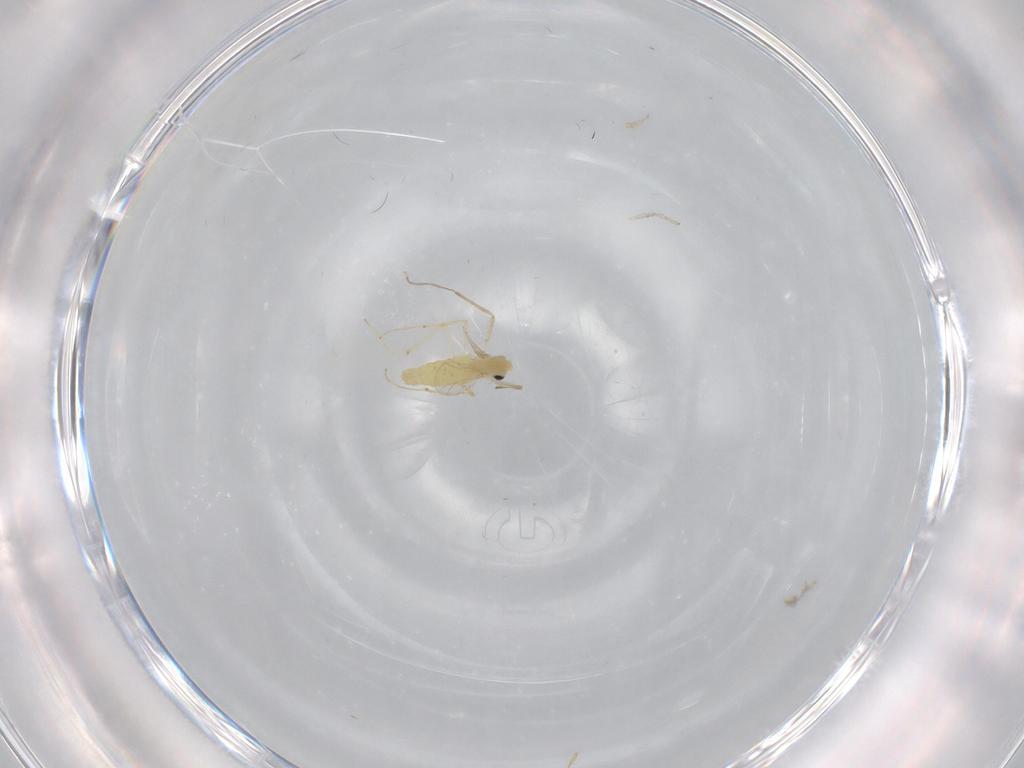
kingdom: Animalia
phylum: Arthropoda
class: Insecta
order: Diptera
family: Chironomidae
